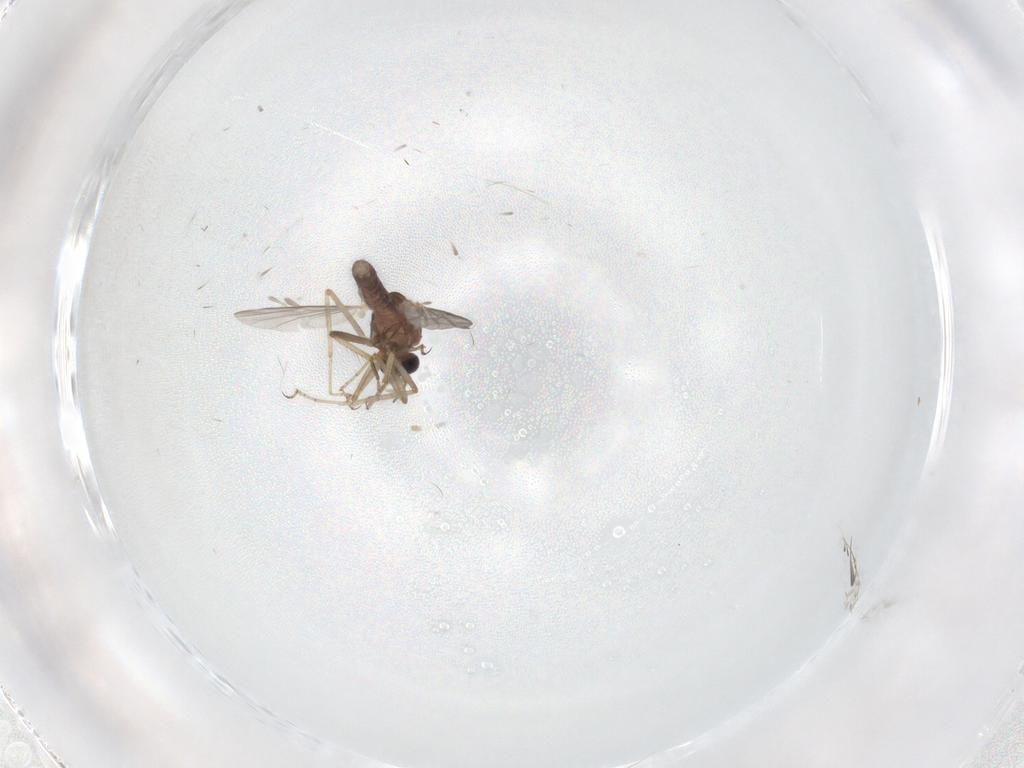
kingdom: Animalia
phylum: Arthropoda
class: Insecta
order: Diptera
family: Ceratopogonidae
